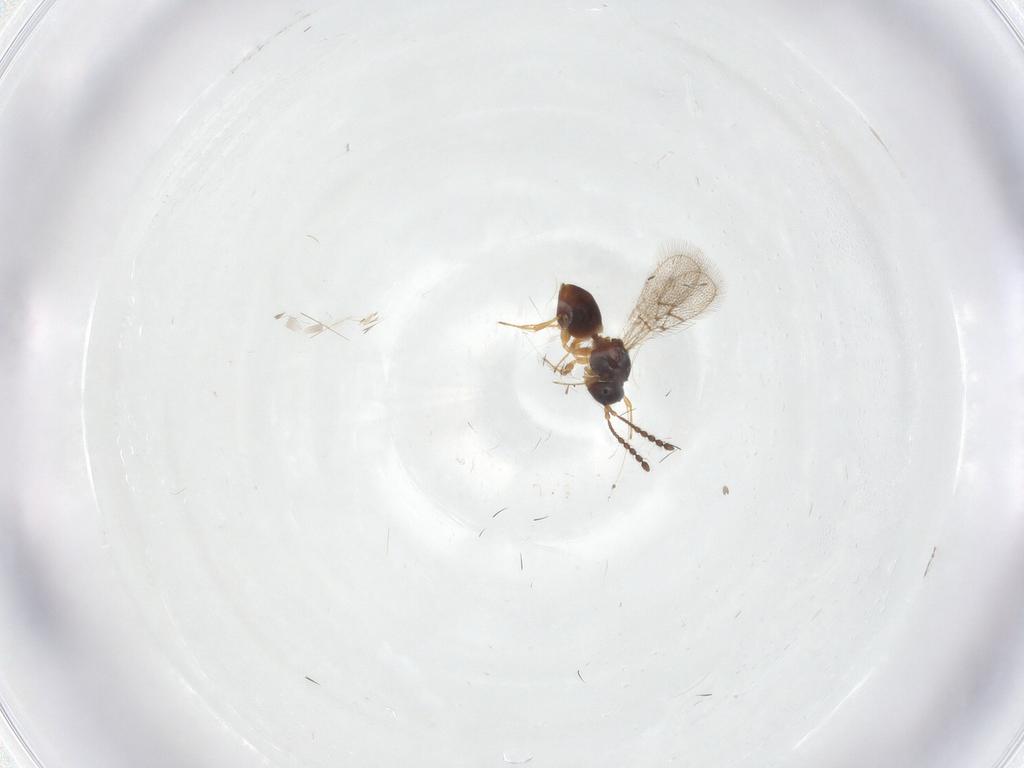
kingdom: Animalia
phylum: Arthropoda
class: Insecta
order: Hymenoptera
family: Figitidae
